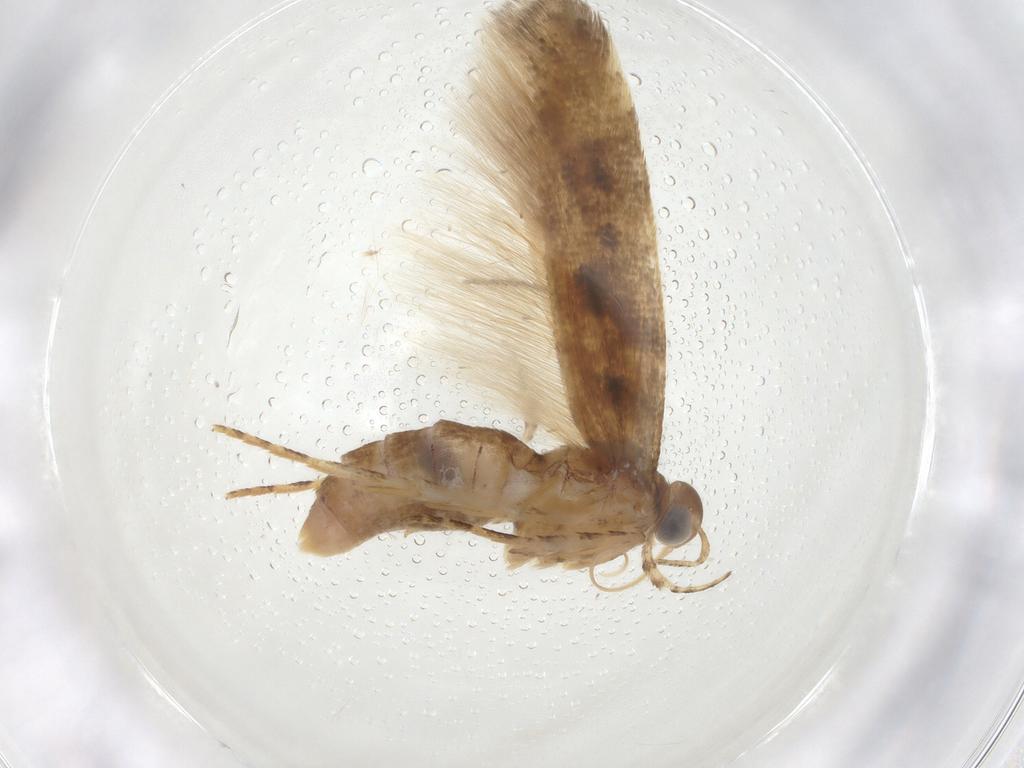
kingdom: Animalia
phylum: Arthropoda
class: Insecta
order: Lepidoptera
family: Gelechiidae
